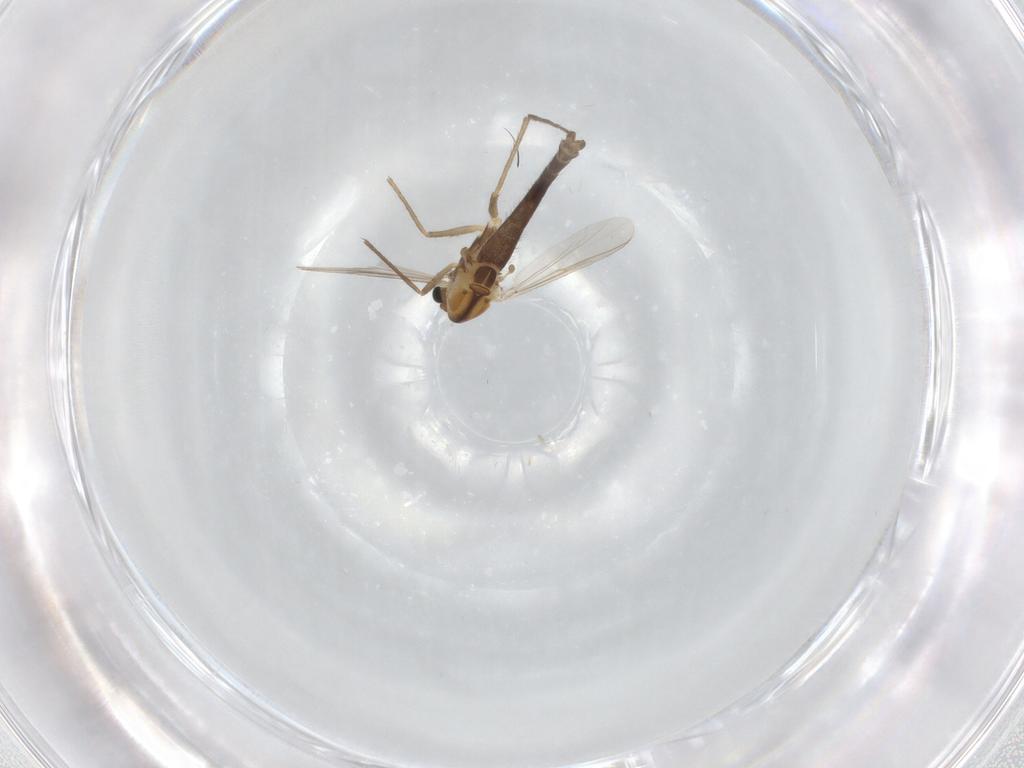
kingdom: Animalia
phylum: Arthropoda
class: Insecta
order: Diptera
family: Chironomidae
